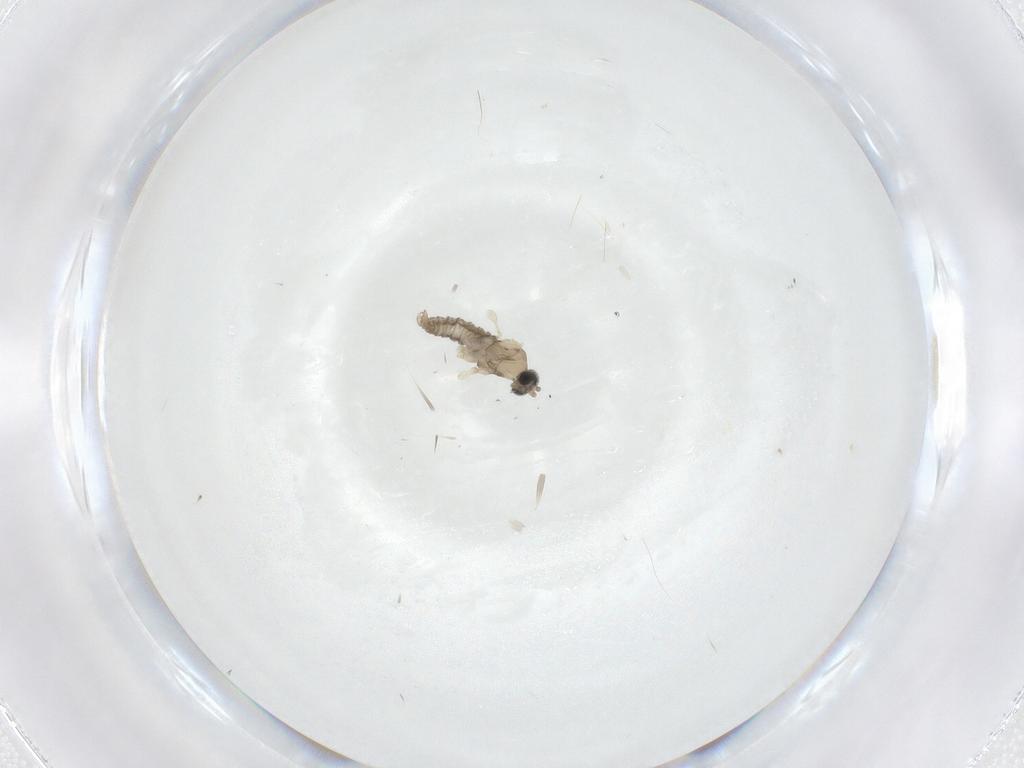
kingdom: Animalia
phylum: Arthropoda
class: Insecta
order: Diptera
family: Cecidomyiidae
